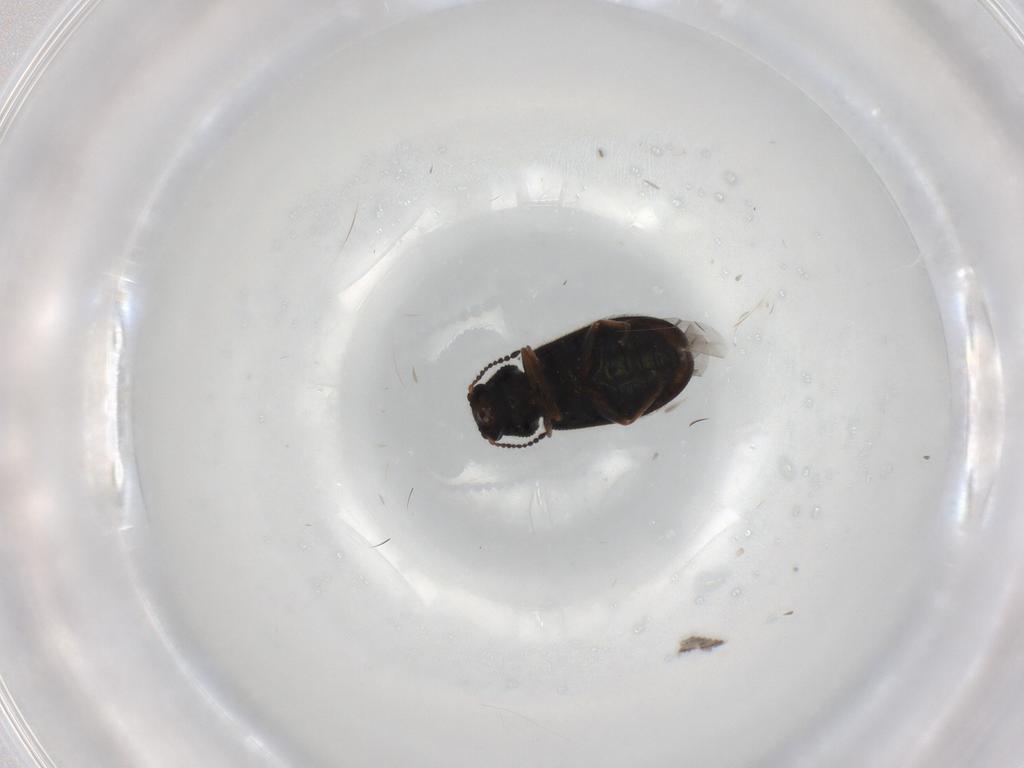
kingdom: Animalia
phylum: Arthropoda
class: Insecta
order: Coleoptera
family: Melyridae
